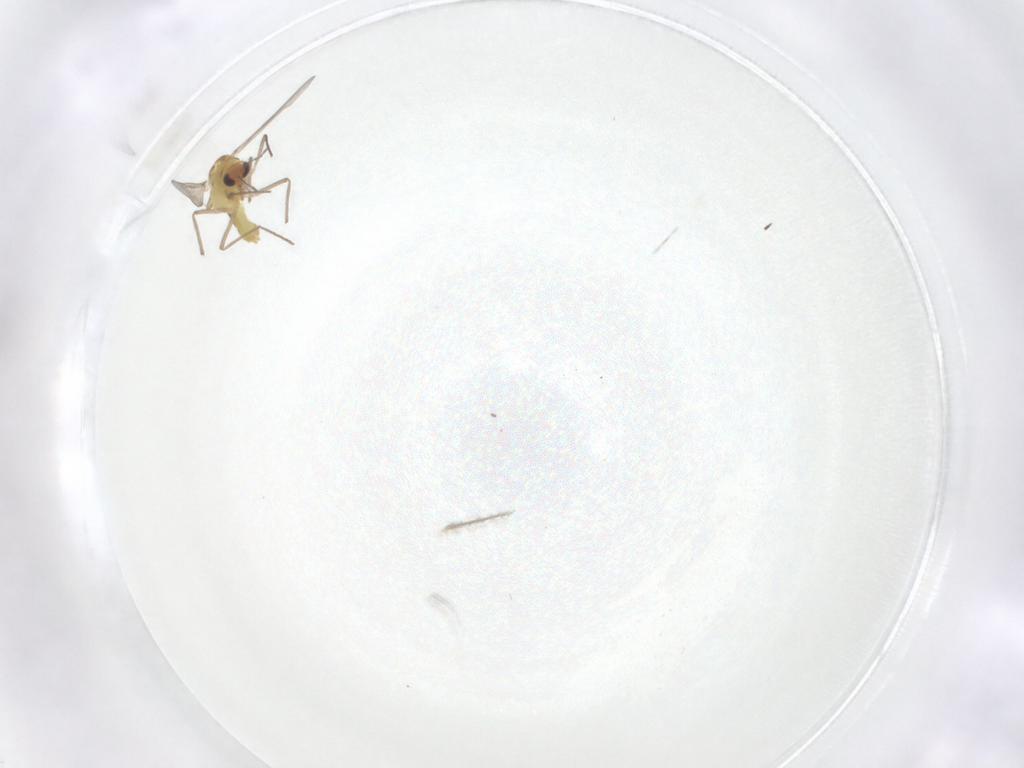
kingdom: Animalia
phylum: Arthropoda
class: Insecta
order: Diptera
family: Chironomidae
